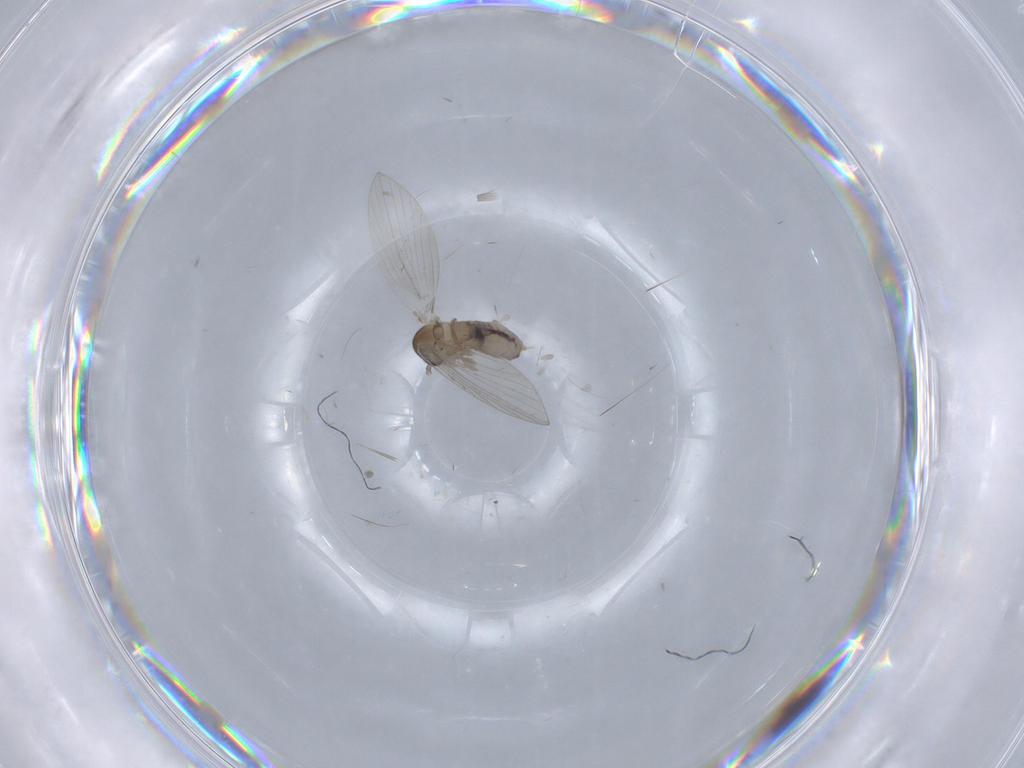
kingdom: Animalia
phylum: Arthropoda
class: Insecta
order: Diptera
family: Psychodidae
